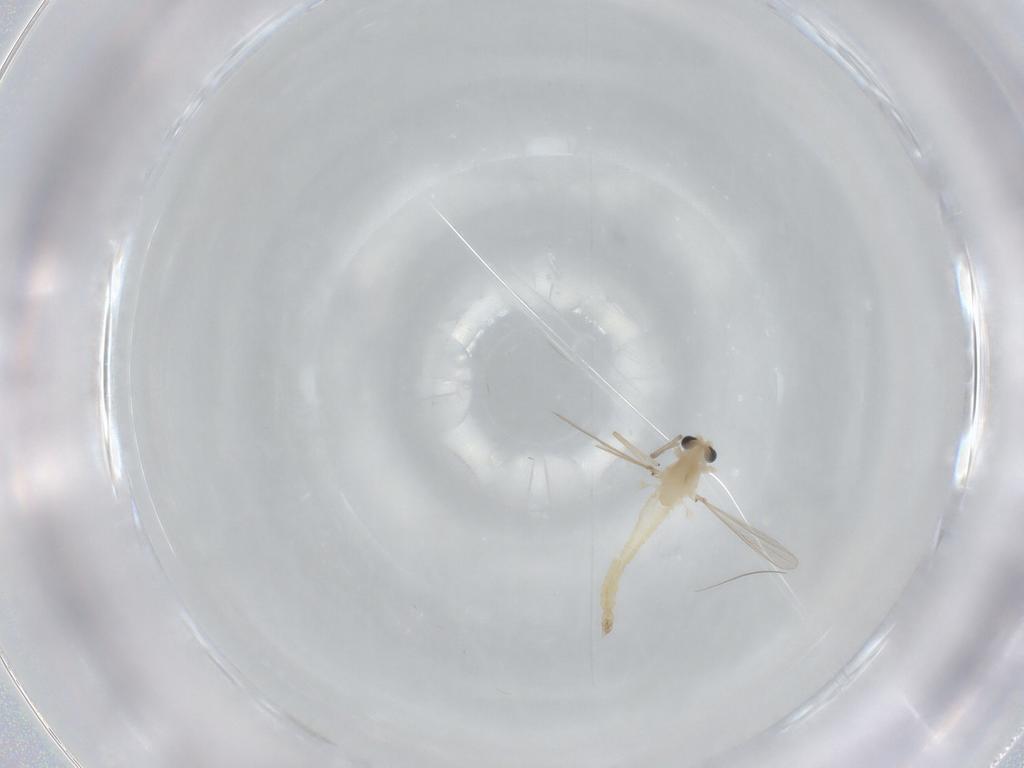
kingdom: Animalia
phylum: Arthropoda
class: Insecta
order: Diptera
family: Chironomidae
